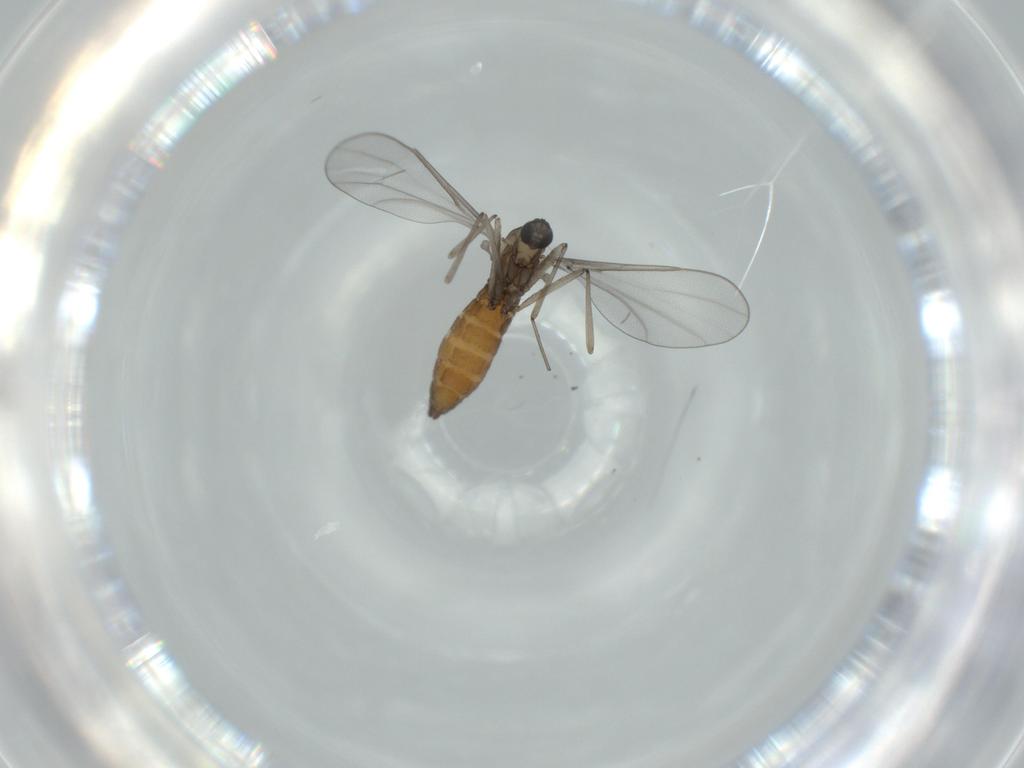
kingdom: Animalia
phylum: Arthropoda
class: Insecta
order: Diptera
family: Cecidomyiidae
